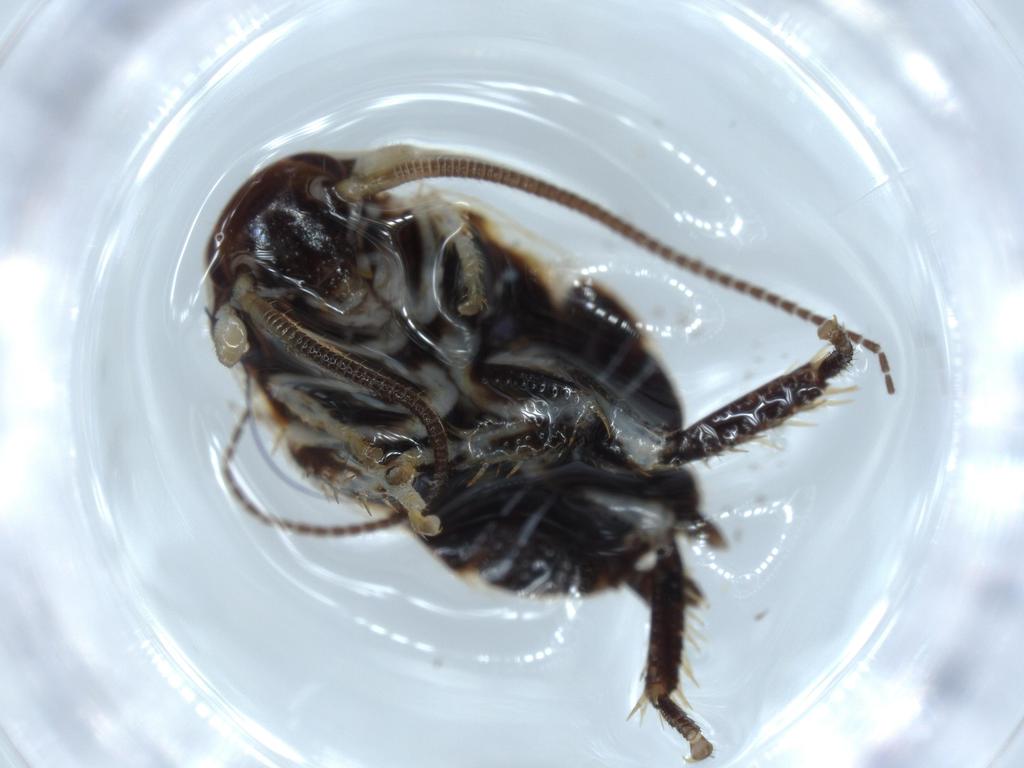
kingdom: Animalia
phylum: Arthropoda
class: Insecta
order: Blattodea
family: Ectobiidae
